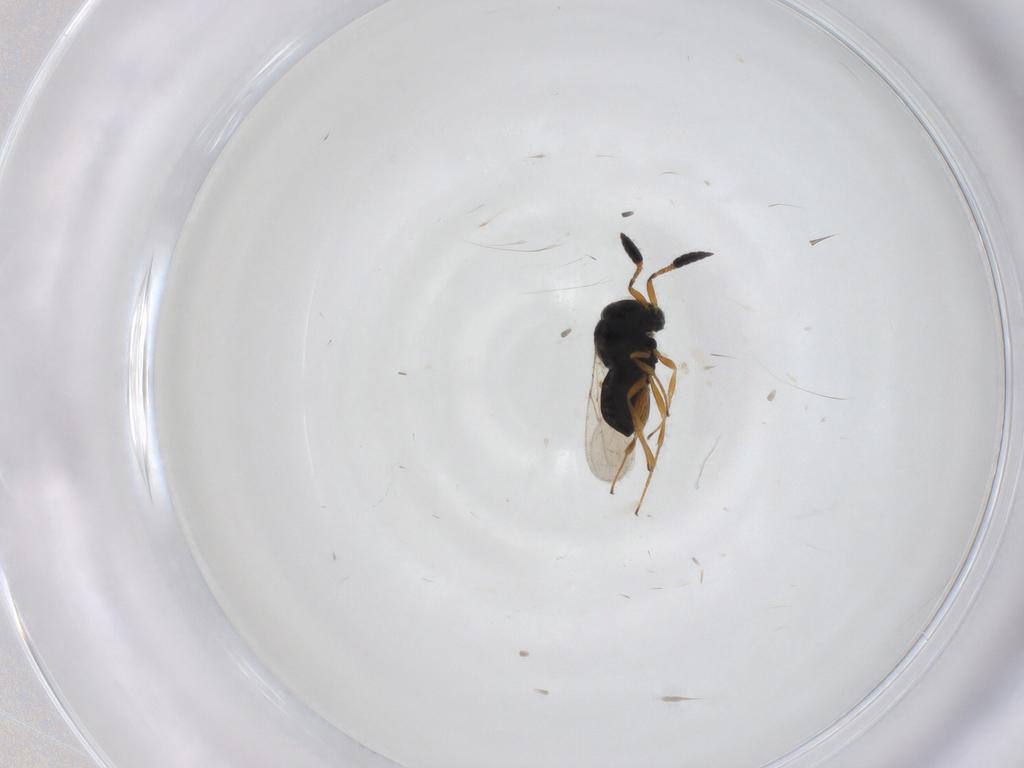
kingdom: Animalia
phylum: Arthropoda
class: Insecta
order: Hymenoptera
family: Scelionidae
